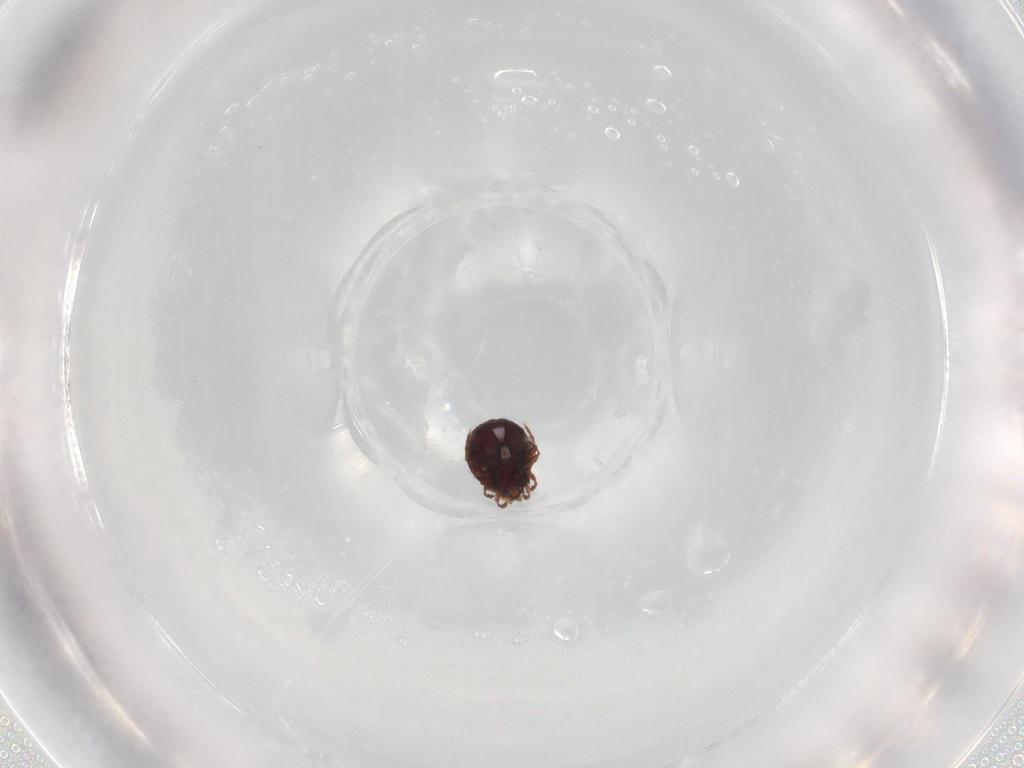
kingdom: Animalia
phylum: Arthropoda
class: Arachnida
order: Sarcoptiformes
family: Cepheusidae
